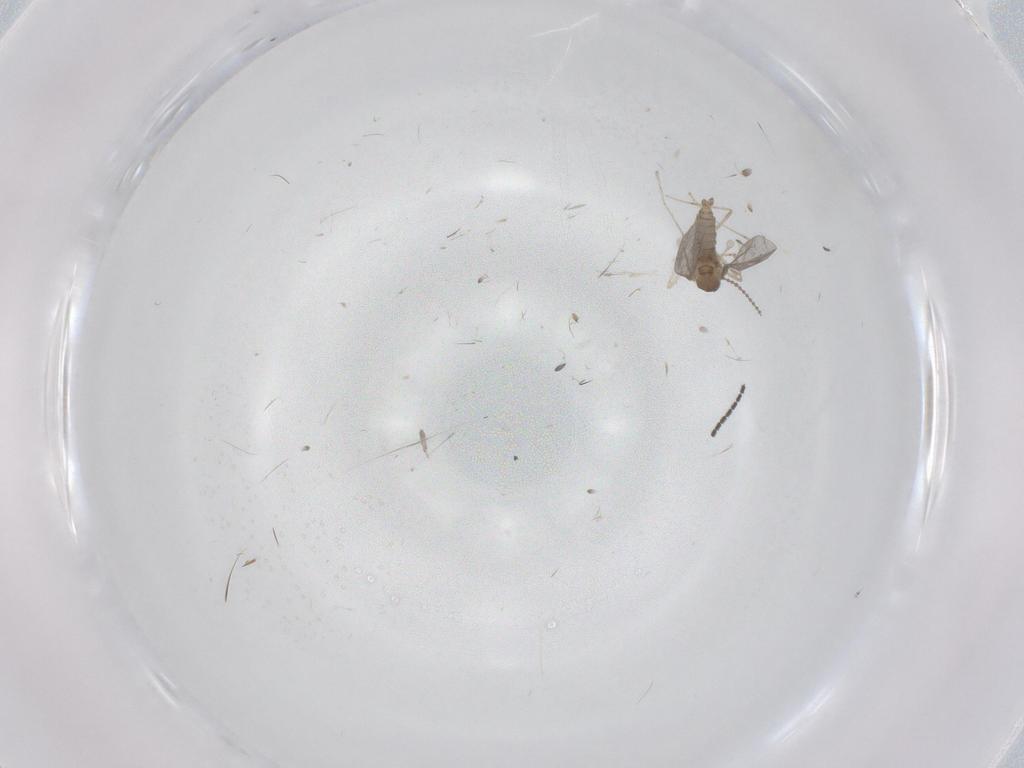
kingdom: Animalia
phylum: Arthropoda
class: Insecta
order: Diptera
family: Cecidomyiidae
